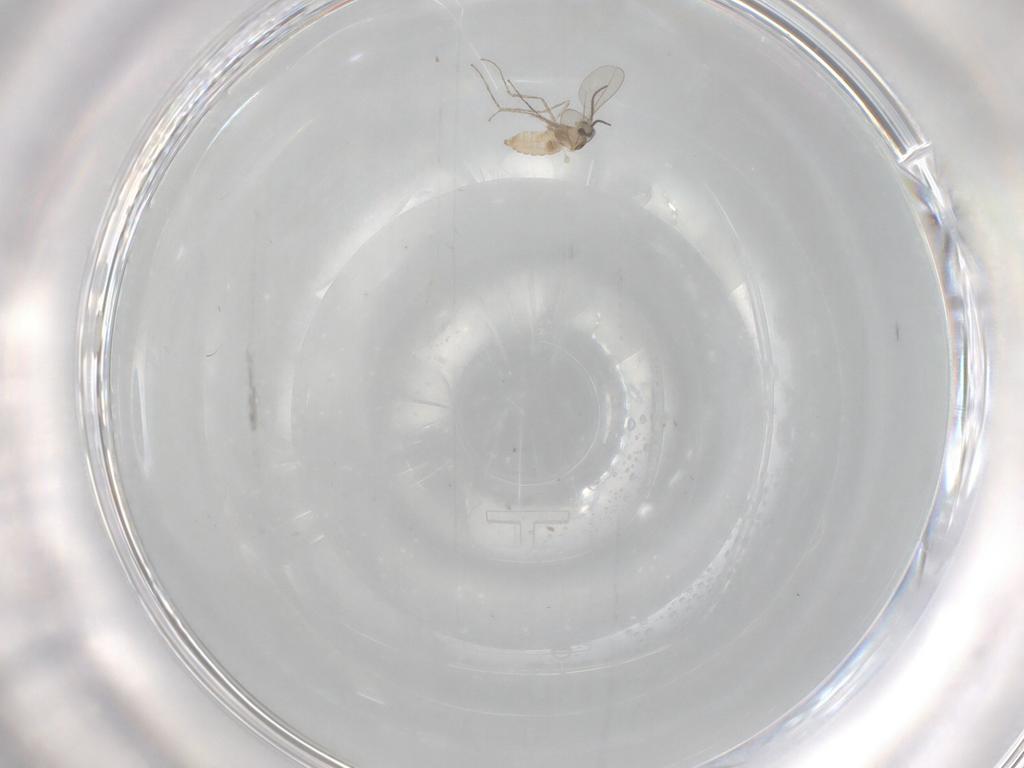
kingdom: Animalia
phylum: Arthropoda
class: Insecta
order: Diptera
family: Cecidomyiidae
